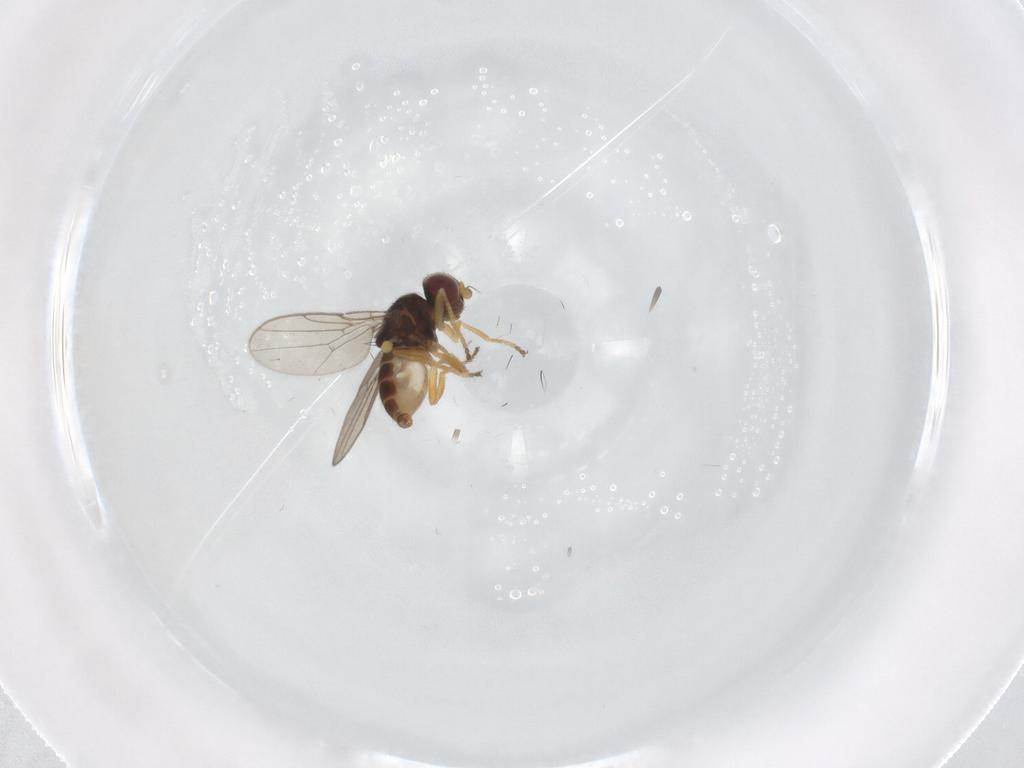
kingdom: Animalia
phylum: Arthropoda
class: Insecta
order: Diptera
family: Chloropidae
